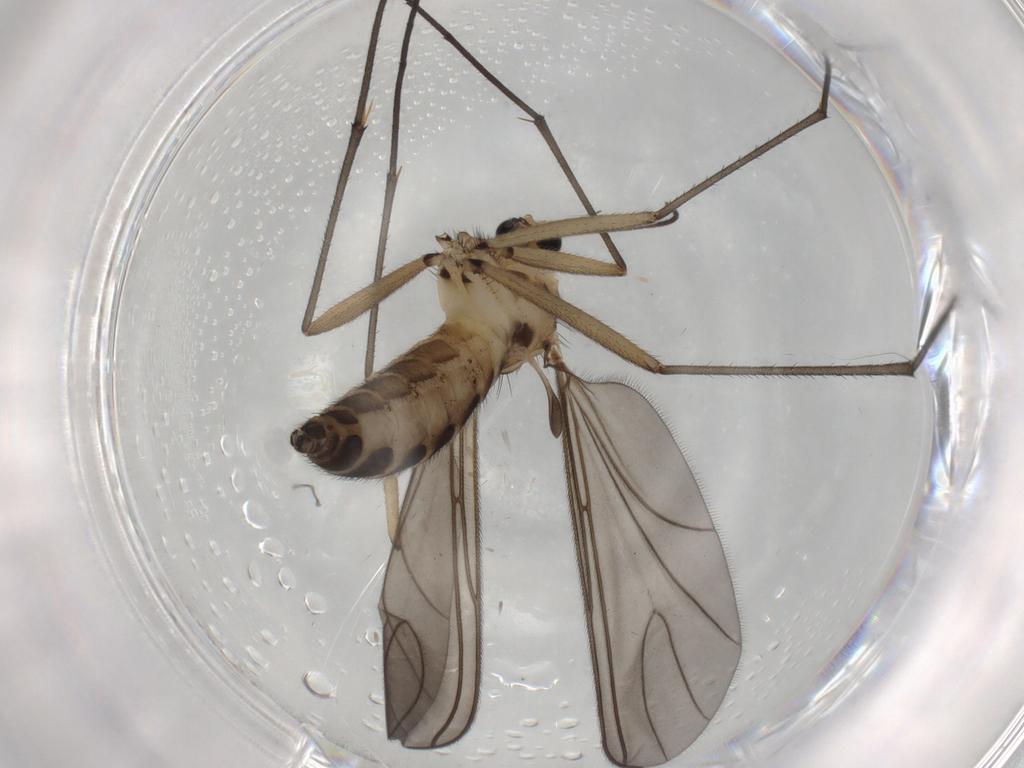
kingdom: Animalia
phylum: Arthropoda
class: Insecta
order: Diptera
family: Sciaridae
